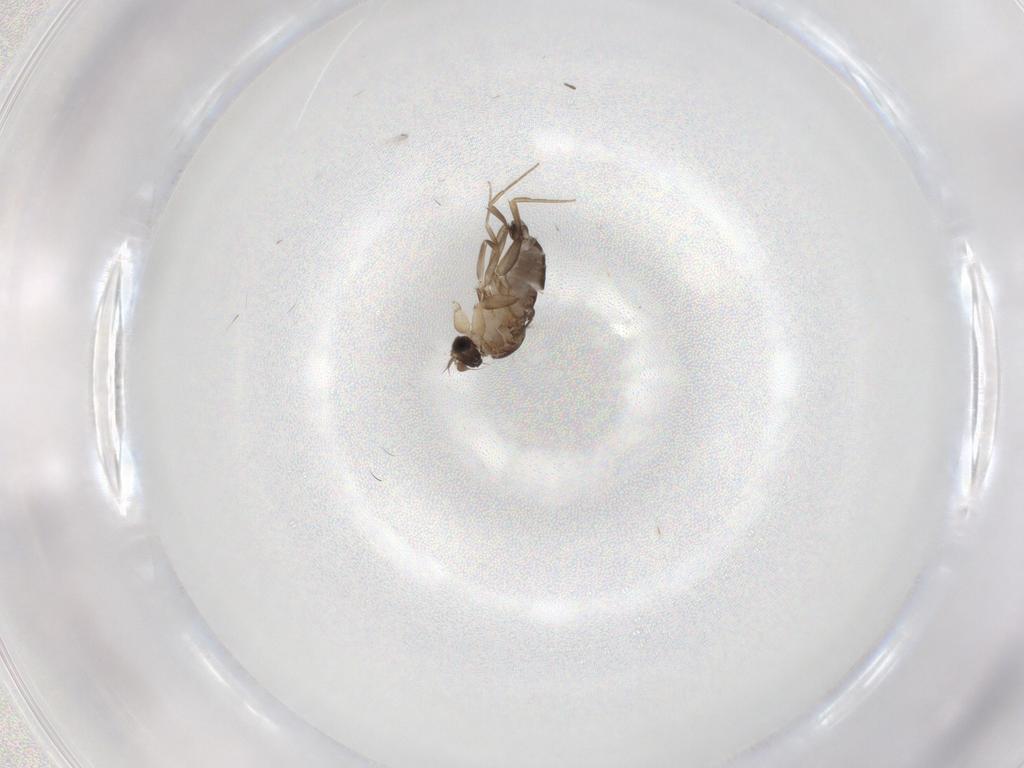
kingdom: Animalia
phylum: Arthropoda
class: Insecta
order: Diptera
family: Phoridae
